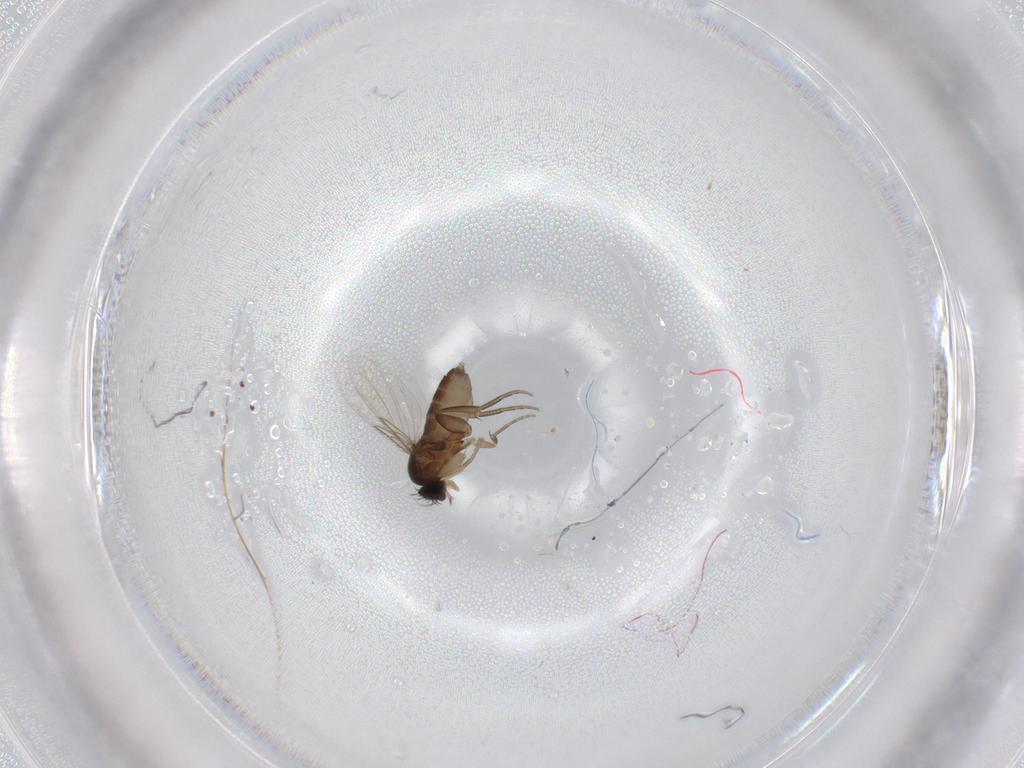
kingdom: Animalia
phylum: Arthropoda
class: Insecta
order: Diptera
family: Phoridae
